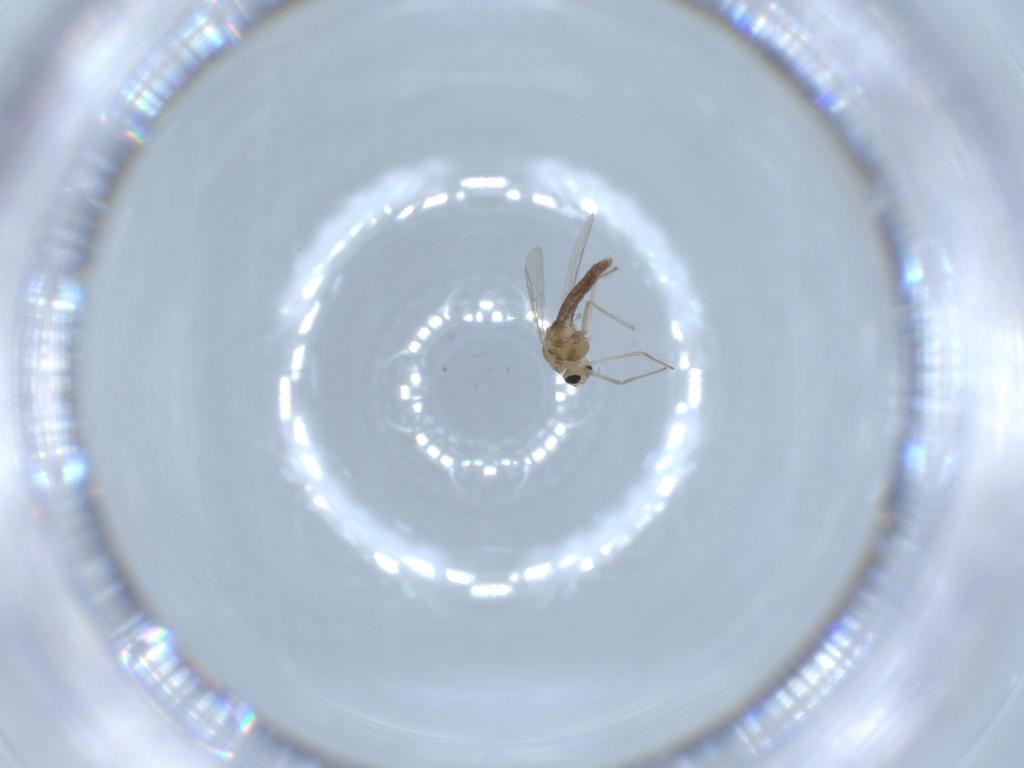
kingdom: Animalia
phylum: Arthropoda
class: Insecta
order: Diptera
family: Chironomidae
